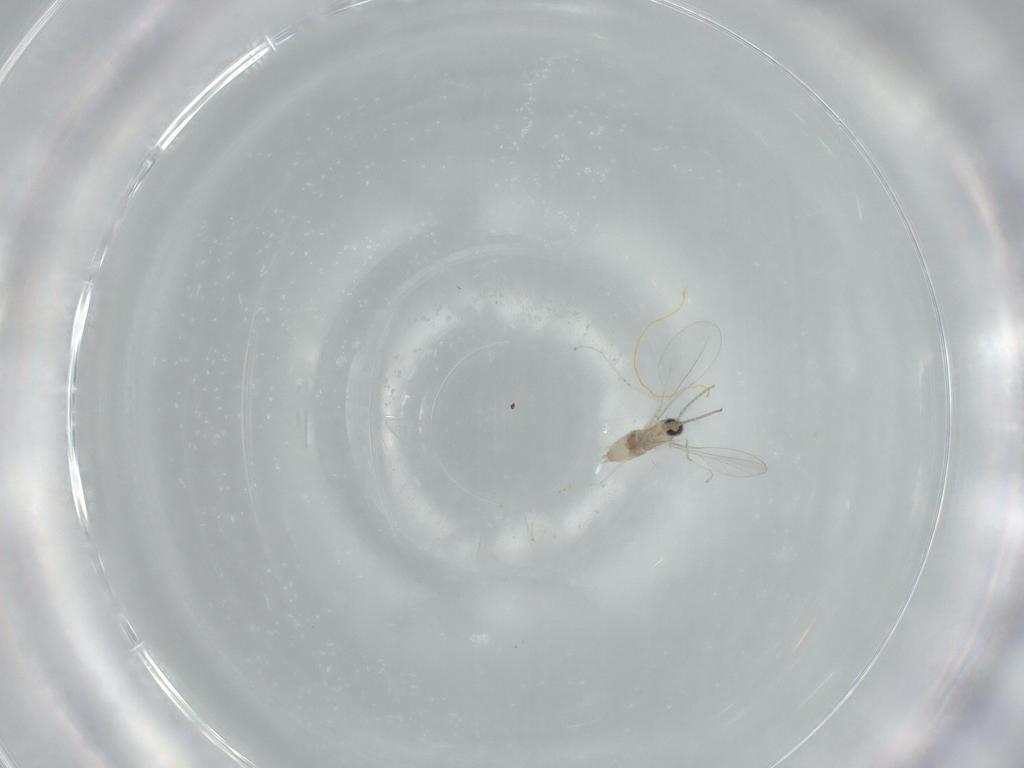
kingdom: Animalia
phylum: Arthropoda
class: Insecta
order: Diptera
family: Cecidomyiidae
